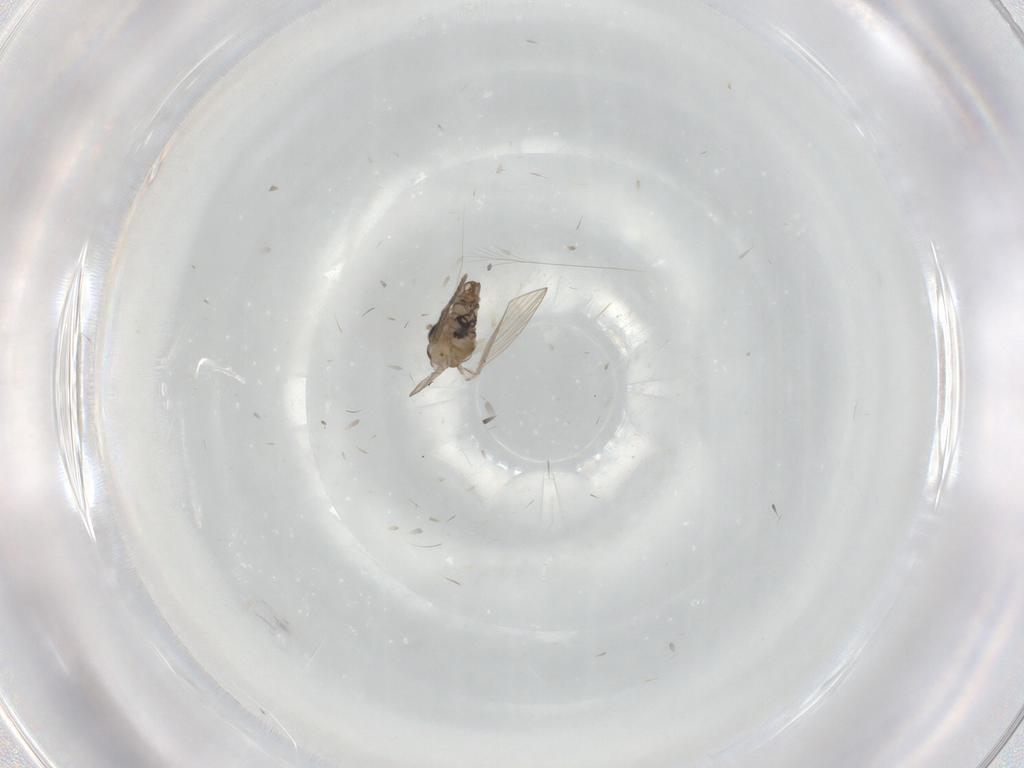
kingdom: Animalia
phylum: Arthropoda
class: Insecta
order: Diptera
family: Psychodidae
